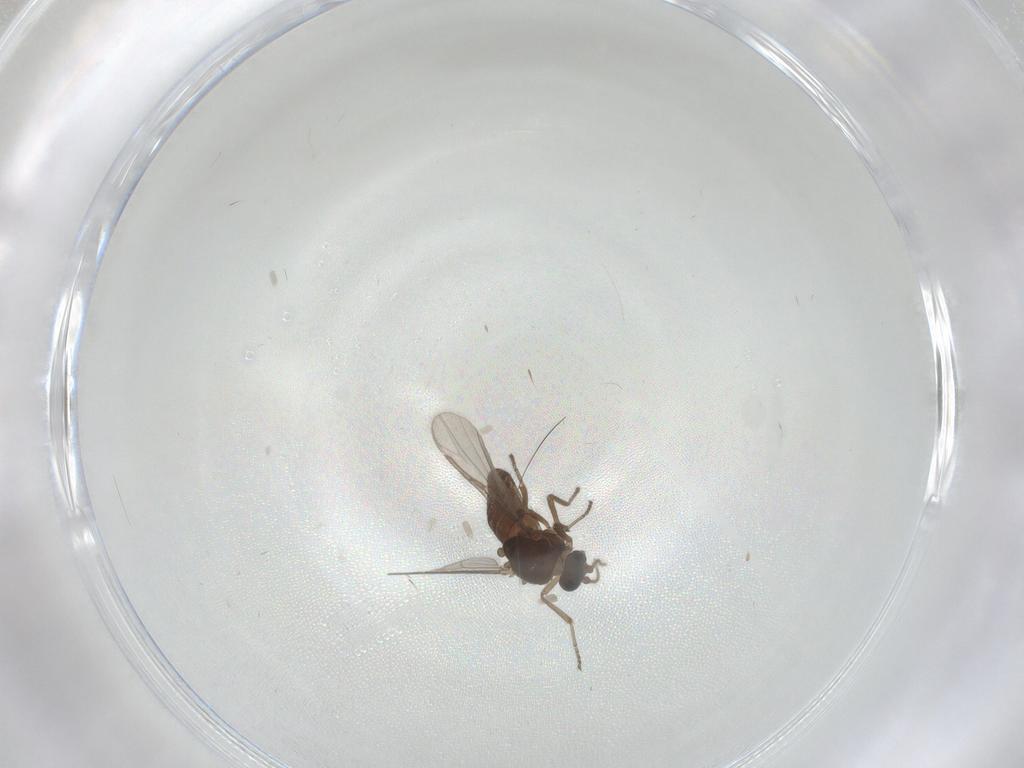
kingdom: Animalia
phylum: Arthropoda
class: Insecta
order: Diptera
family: Ceratopogonidae
